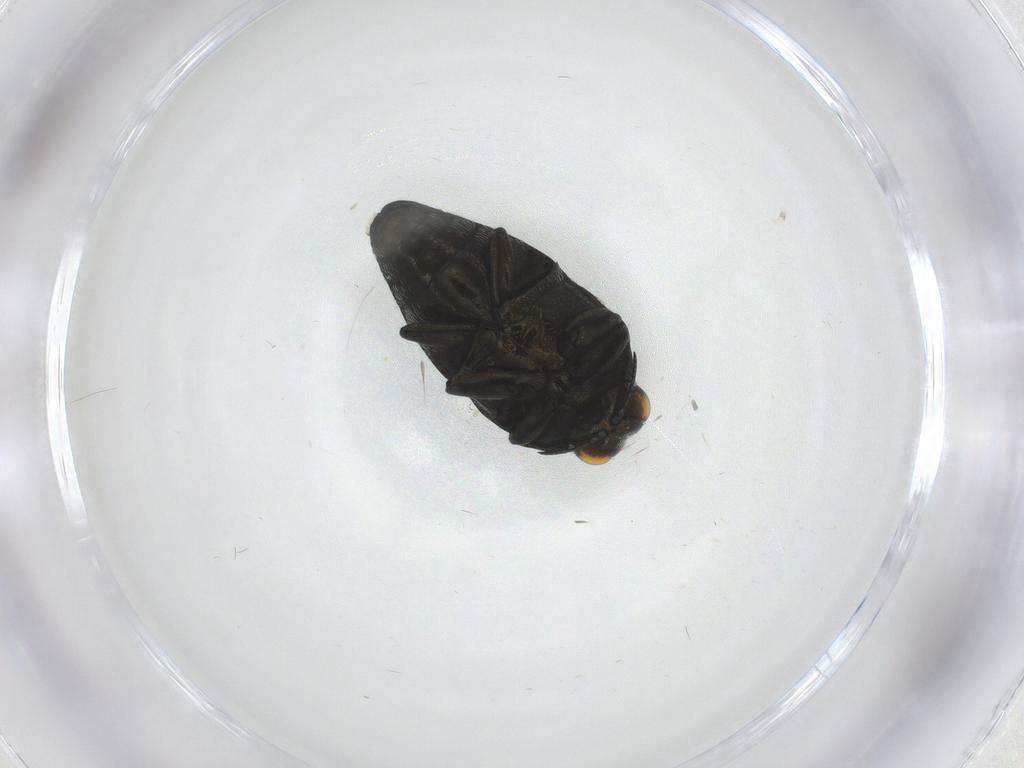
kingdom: Animalia
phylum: Arthropoda
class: Insecta
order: Coleoptera
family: Buprestidae
